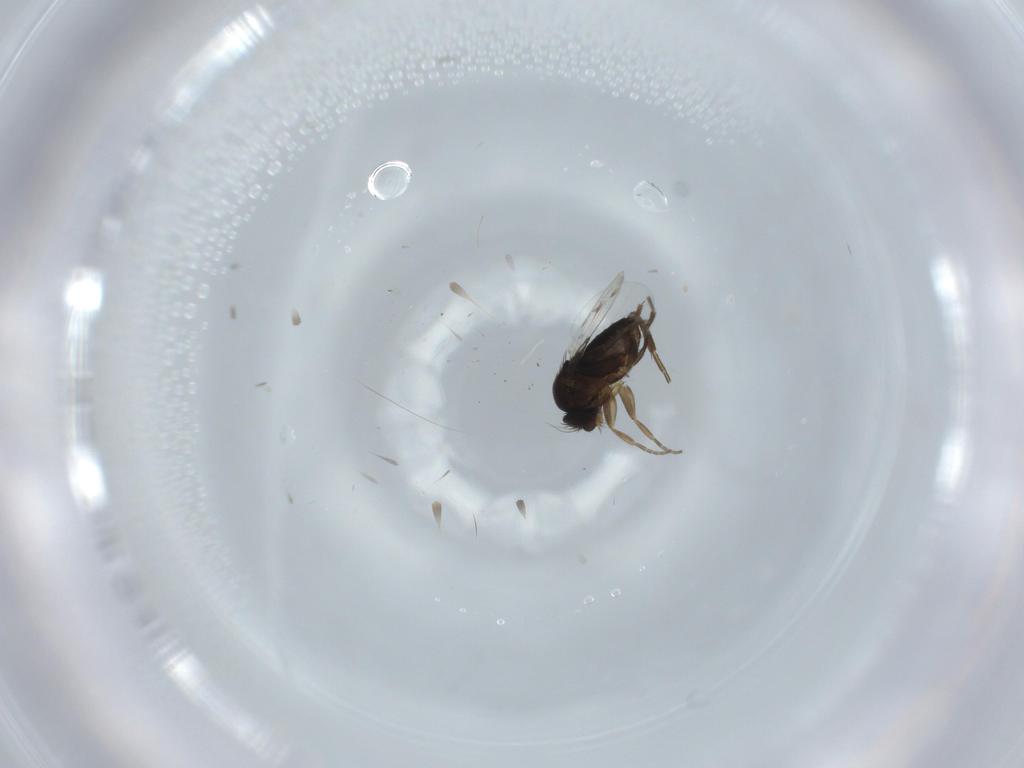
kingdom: Animalia
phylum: Arthropoda
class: Insecta
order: Diptera
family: Phoridae
